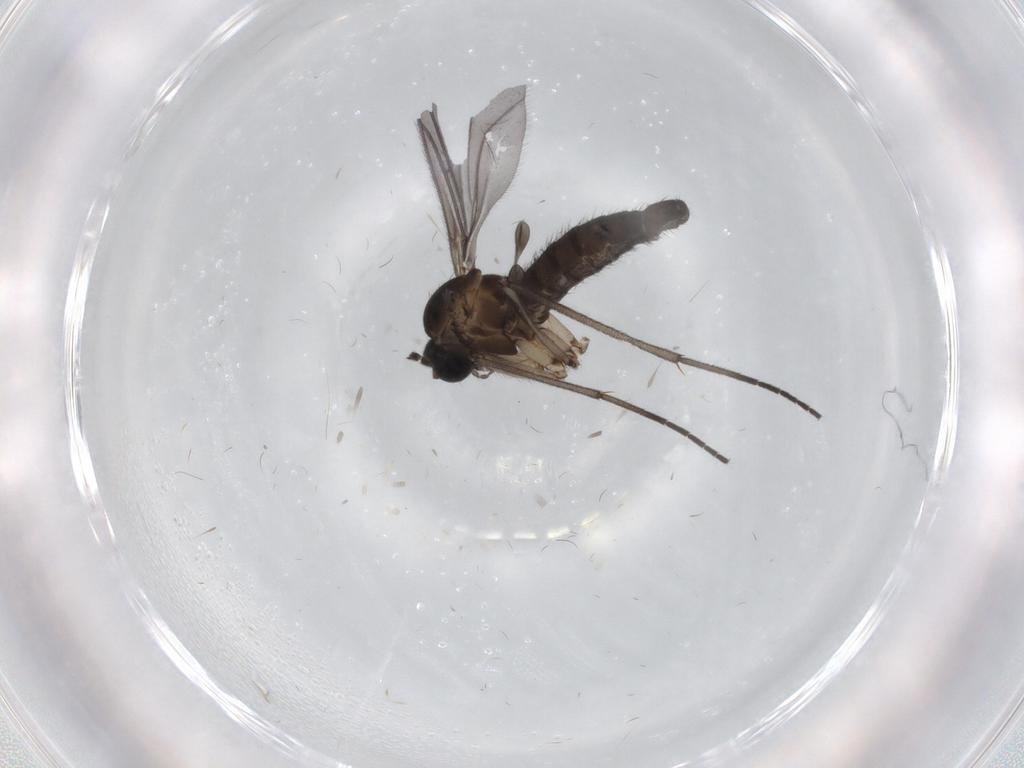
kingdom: Animalia
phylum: Arthropoda
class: Insecta
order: Diptera
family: Sciaridae
